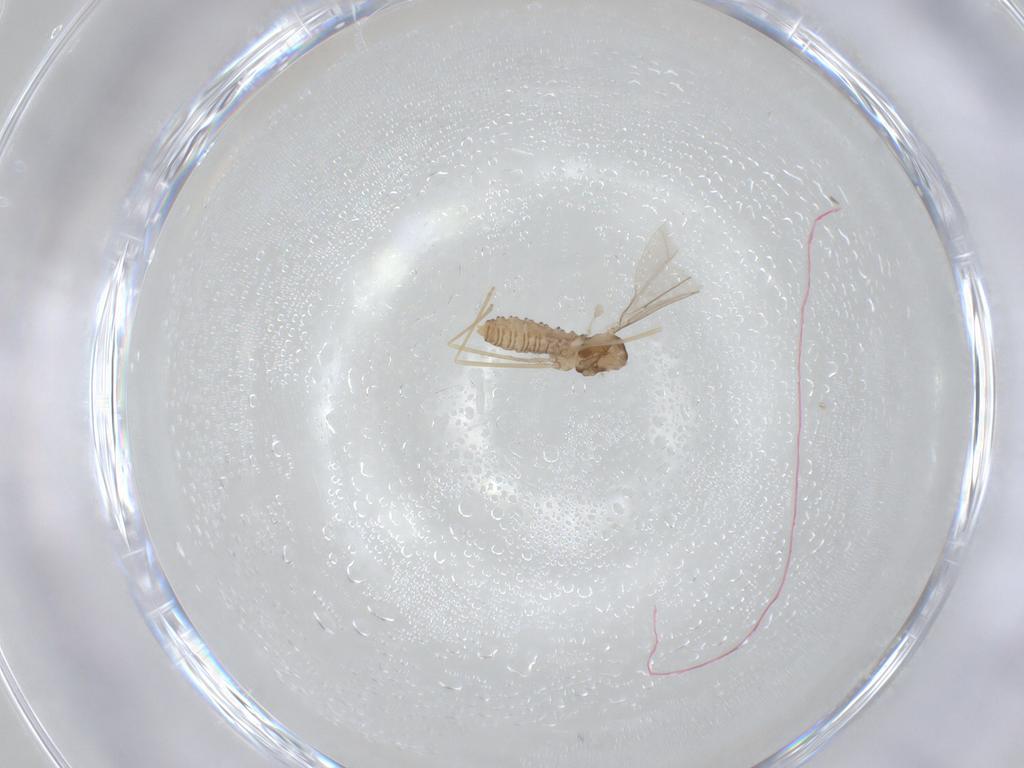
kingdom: Animalia
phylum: Arthropoda
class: Insecta
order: Diptera
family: Cecidomyiidae
